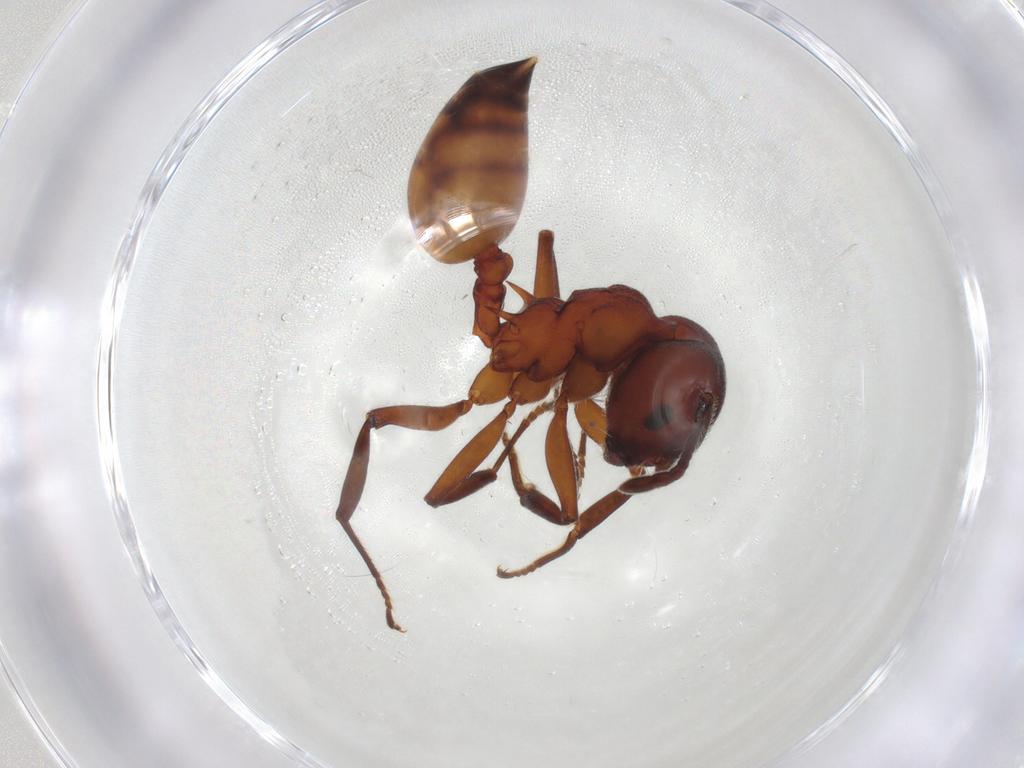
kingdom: Animalia
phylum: Arthropoda
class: Insecta
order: Hymenoptera
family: Formicidae
